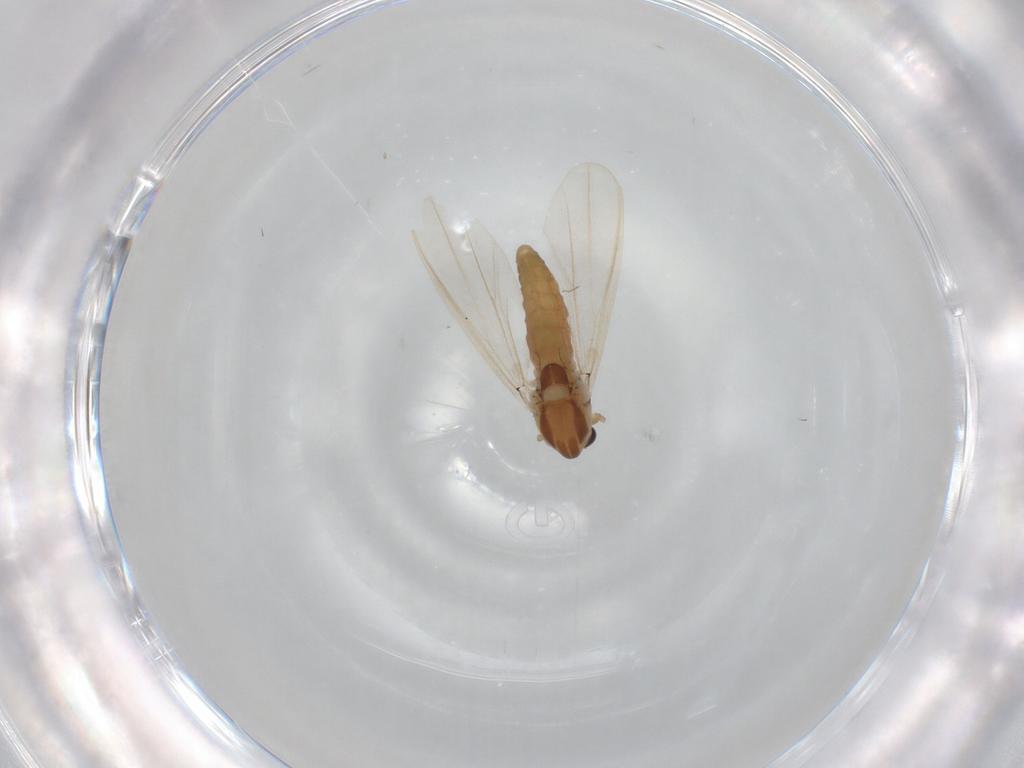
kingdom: Animalia
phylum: Arthropoda
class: Insecta
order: Diptera
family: Chironomidae
